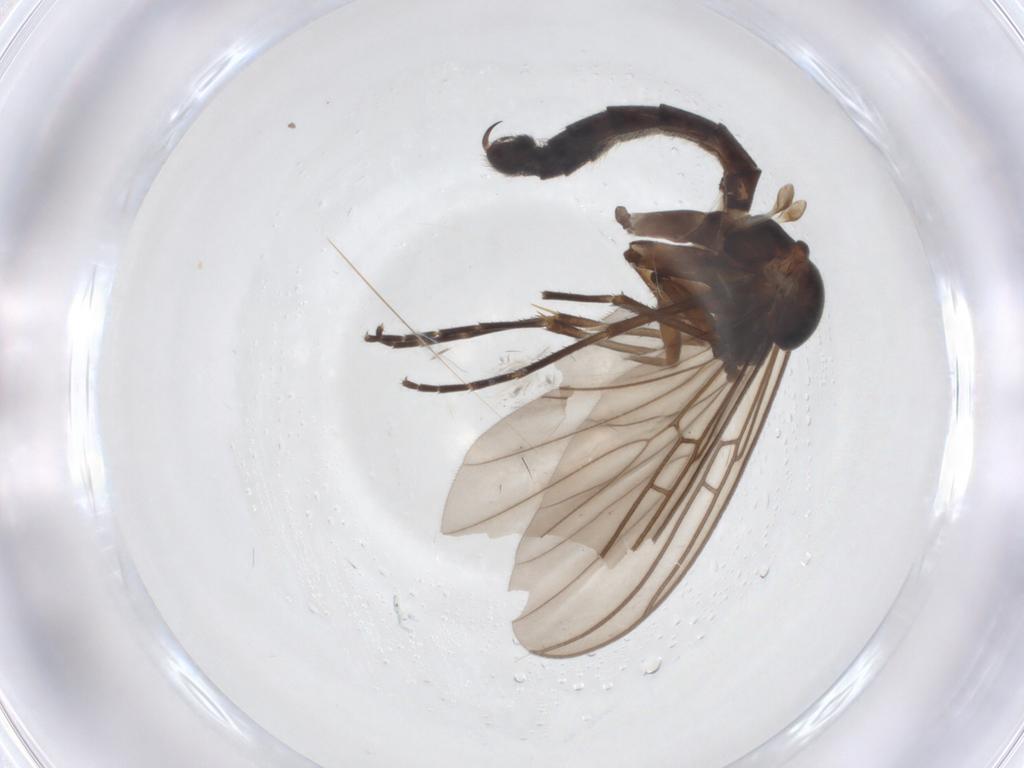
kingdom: Animalia
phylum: Arthropoda
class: Insecta
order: Diptera
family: Mycetophilidae
